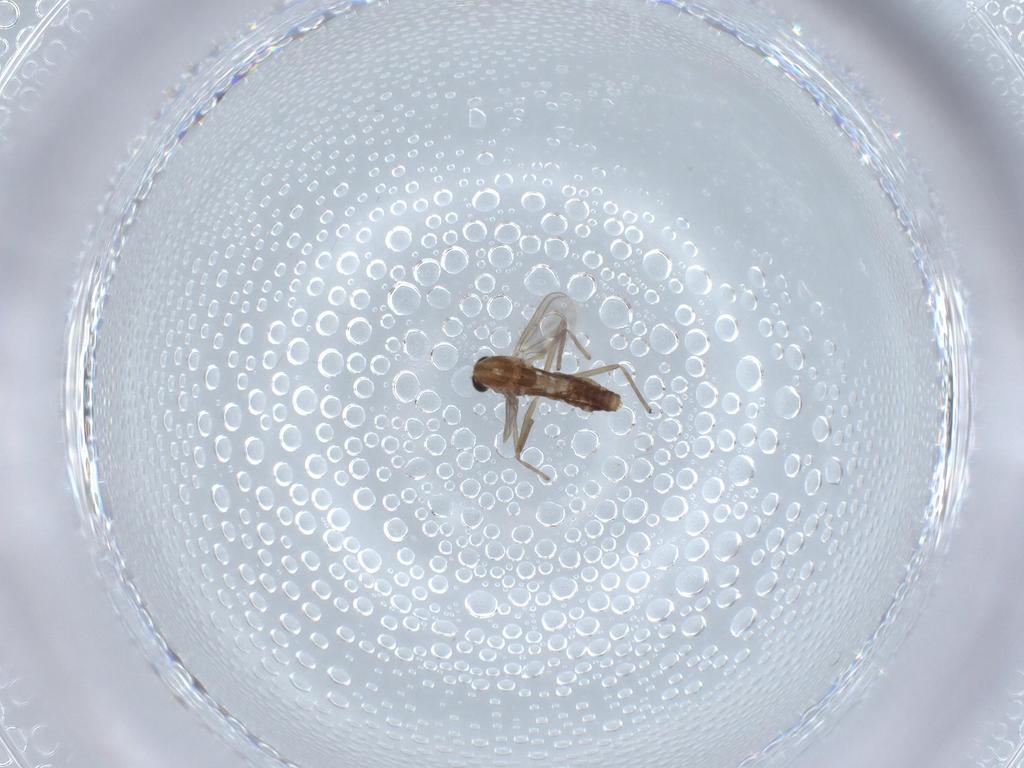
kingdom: Animalia
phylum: Arthropoda
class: Insecta
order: Diptera
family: Chironomidae
